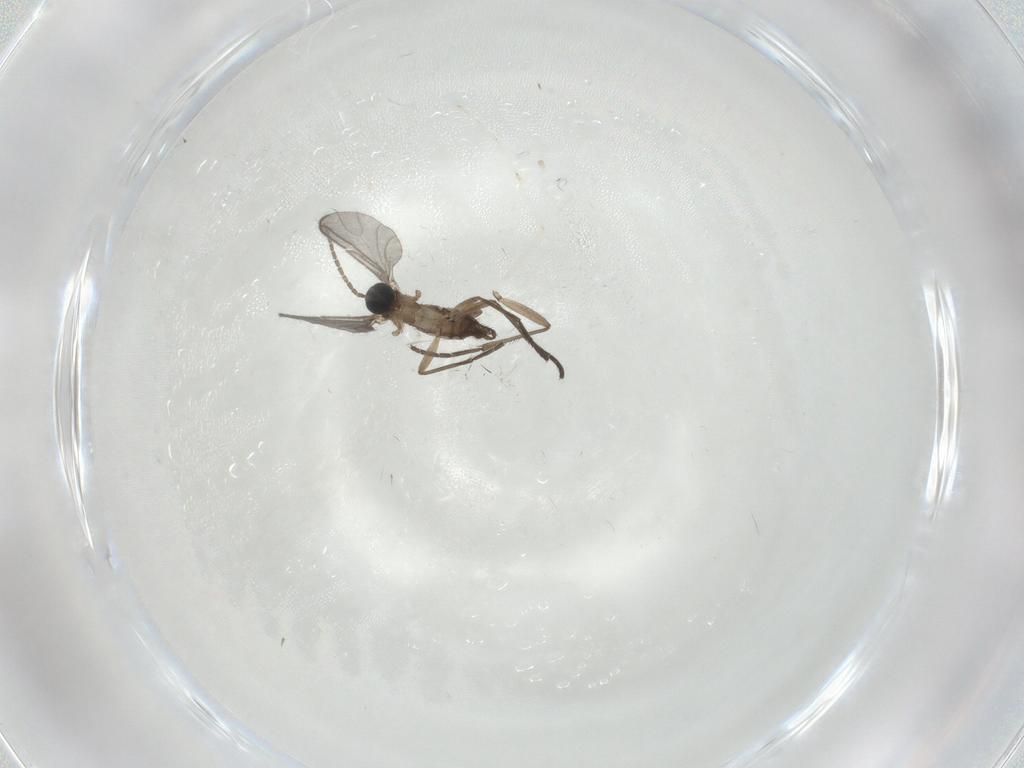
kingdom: Animalia
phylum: Arthropoda
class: Insecta
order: Diptera
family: Sciaridae
